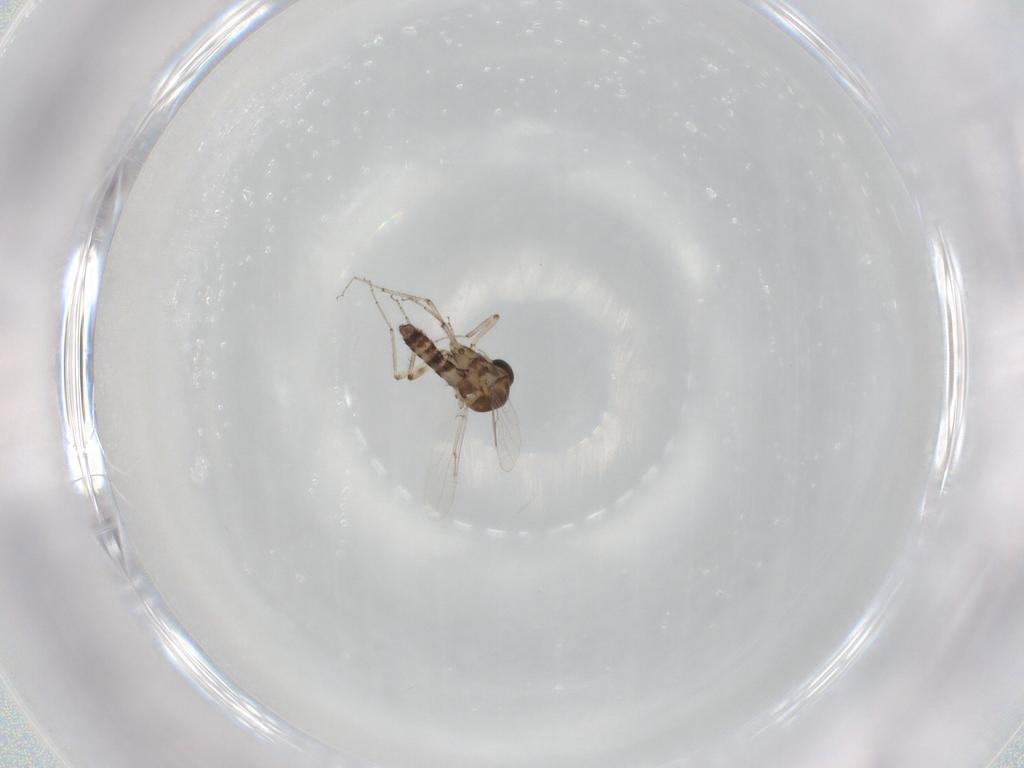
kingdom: Animalia
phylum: Arthropoda
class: Insecta
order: Diptera
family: Ceratopogonidae
